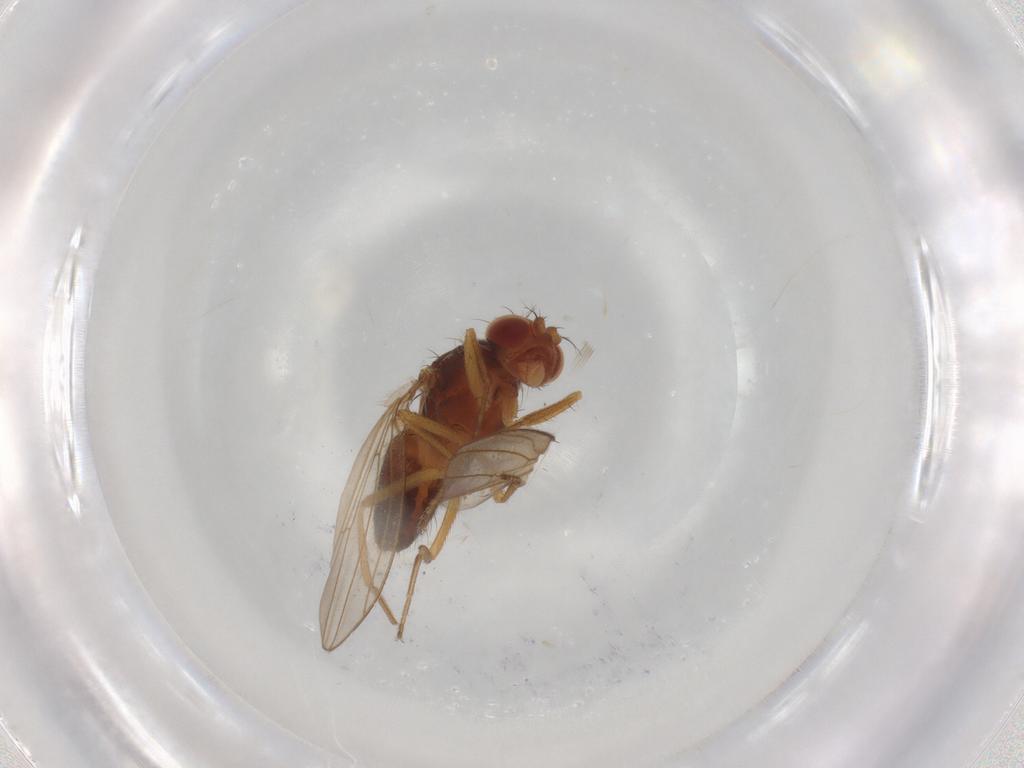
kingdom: Animalia
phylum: Arthropoda
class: Insecta
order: Diptera
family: Drosophilidae
